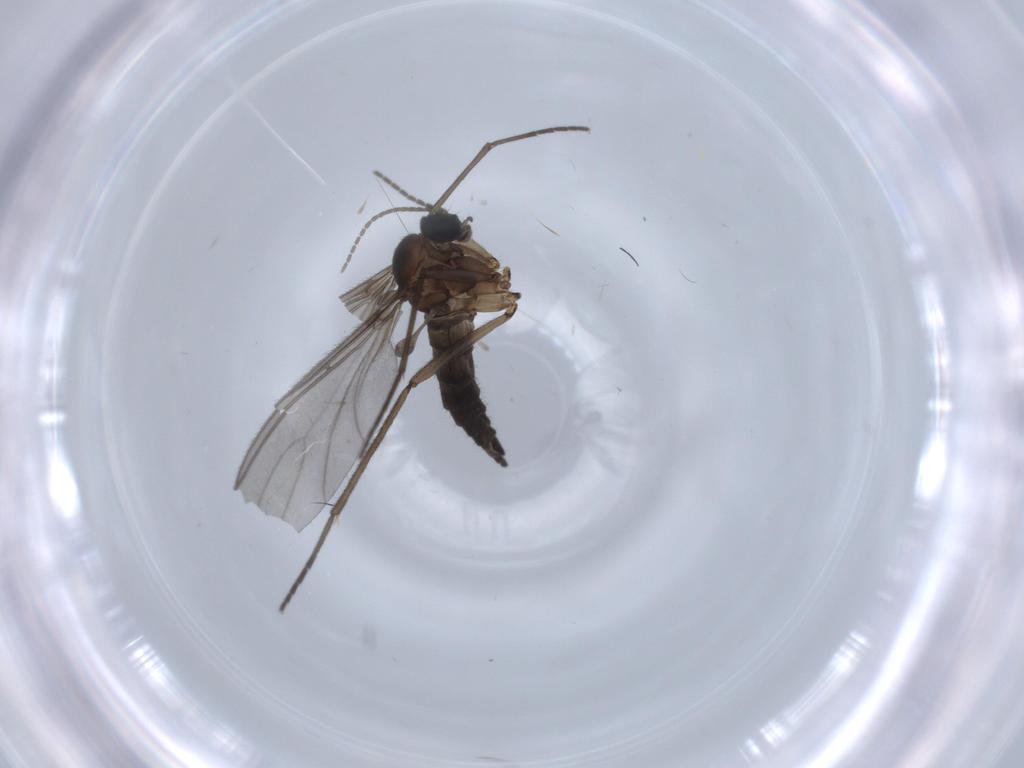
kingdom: Animalia
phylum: Arthropoda
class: Insecta
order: Diptera
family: Sciaridae
